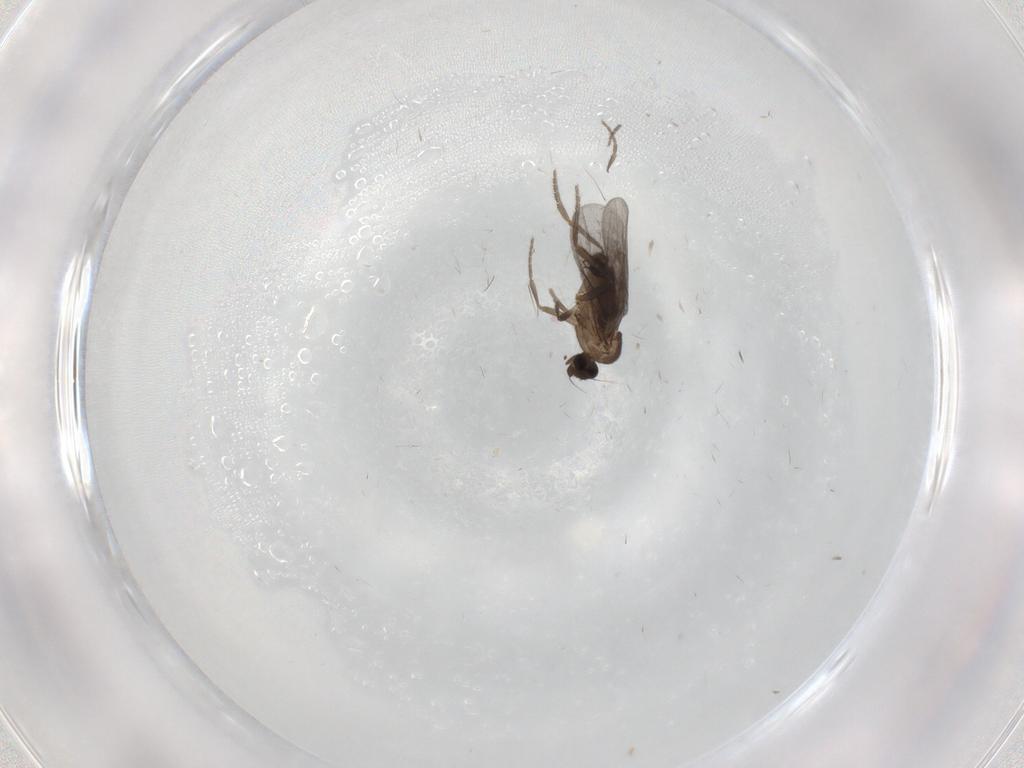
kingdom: Animalia
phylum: Arthropoda
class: Insecta
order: Diptera
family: Phoridae
